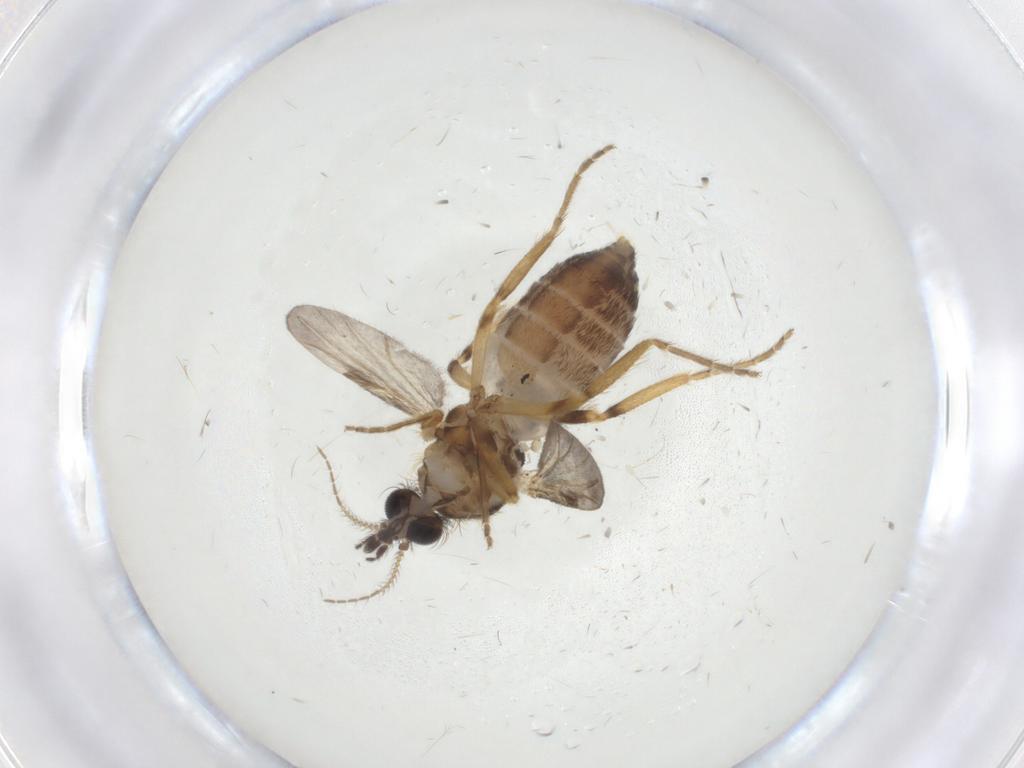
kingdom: Animalia
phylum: Arthropoda
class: Insecta
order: Diptera
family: Ceratopogonidae
